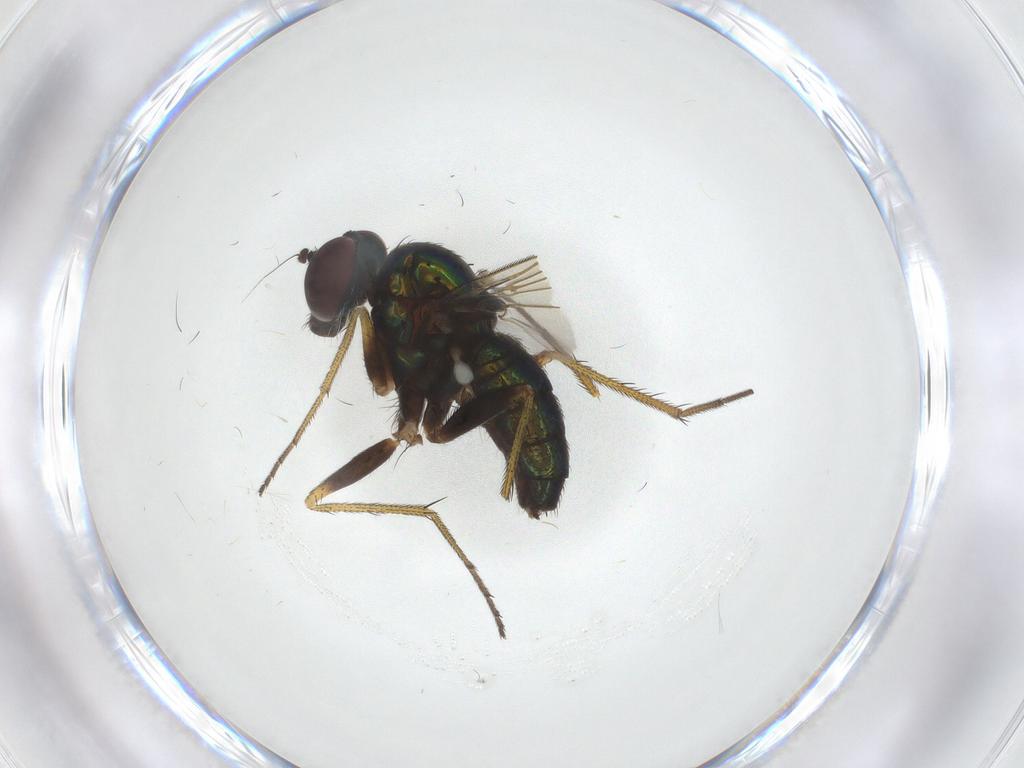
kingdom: Animalia
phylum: Arthropoda
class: Insecta
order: Diptera
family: Dolichopodidae
